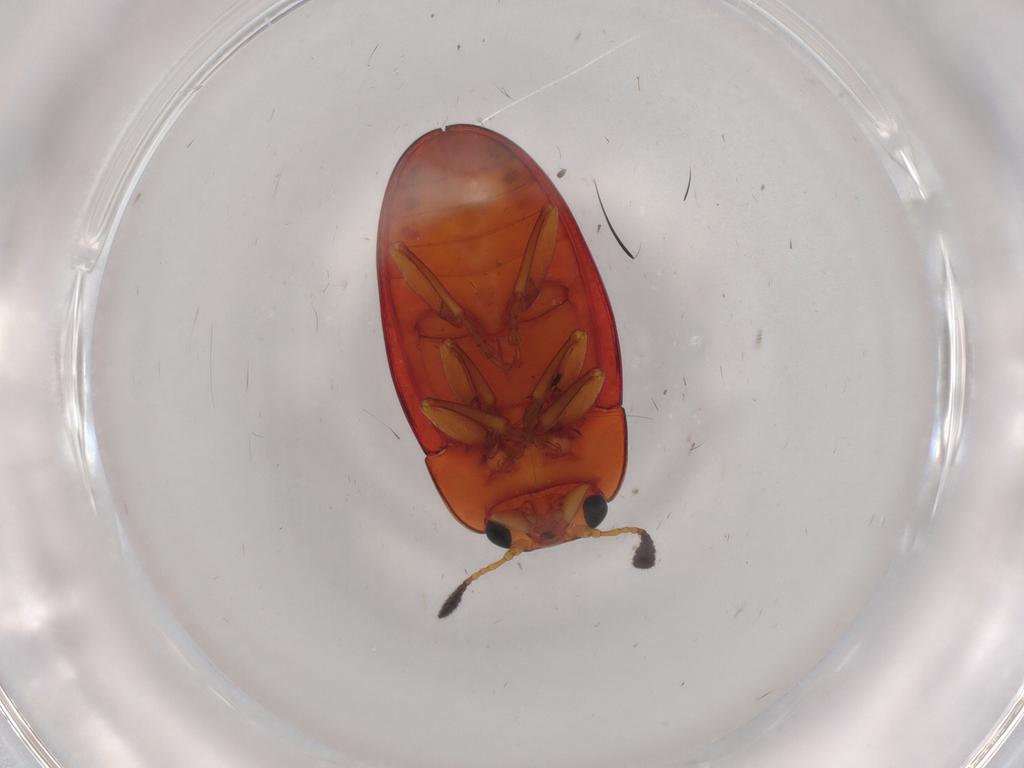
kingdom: Animalia
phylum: Arthropoda
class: Insecta
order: Coleoptera
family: Erotylidae
